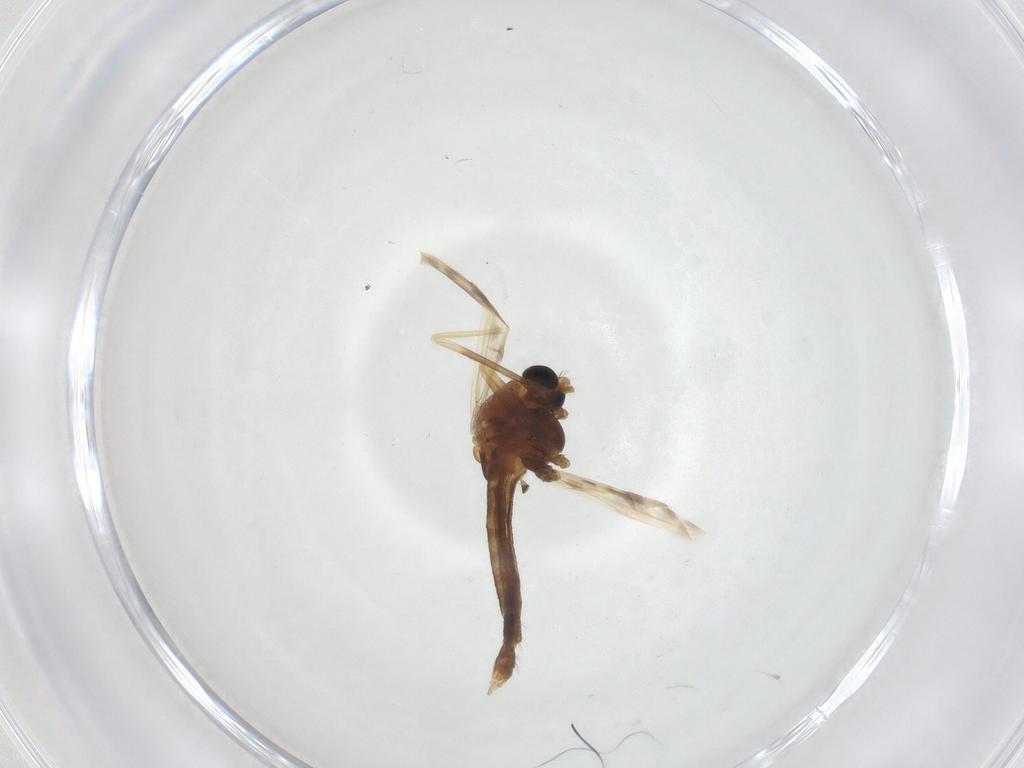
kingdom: Animalia
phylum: Arthropoda
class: Insecta
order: Diptera
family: Chironomidae
